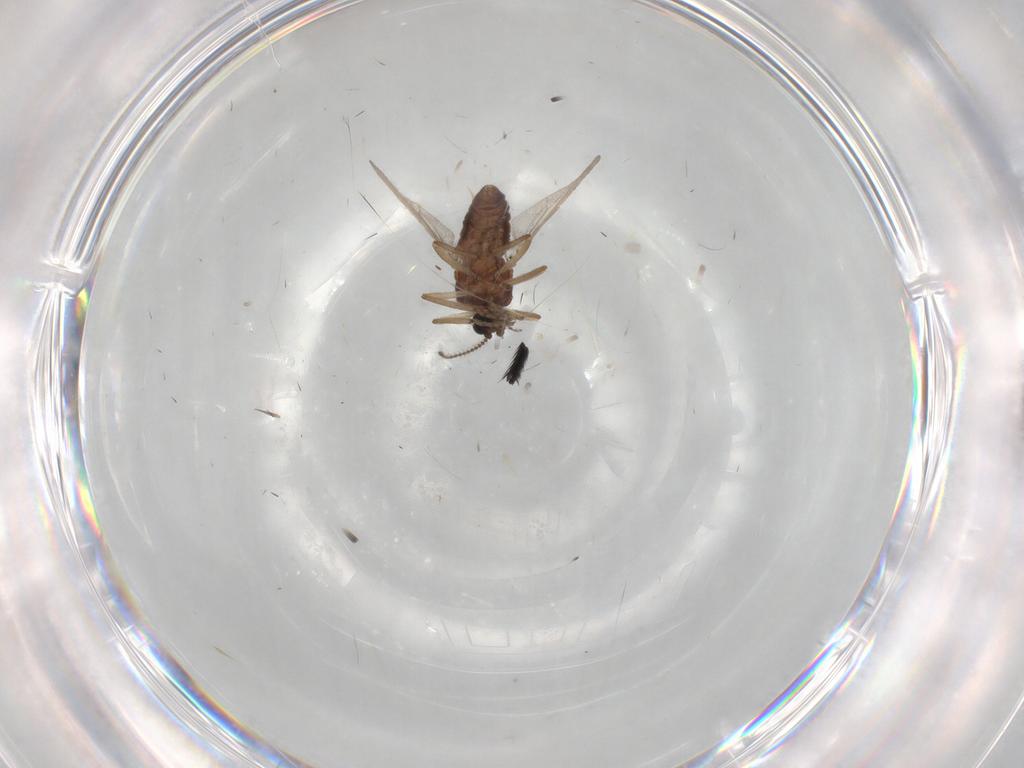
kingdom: Animalia
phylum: Arthropoda
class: Insecta
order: Diptera
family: Ceratopogonidae
